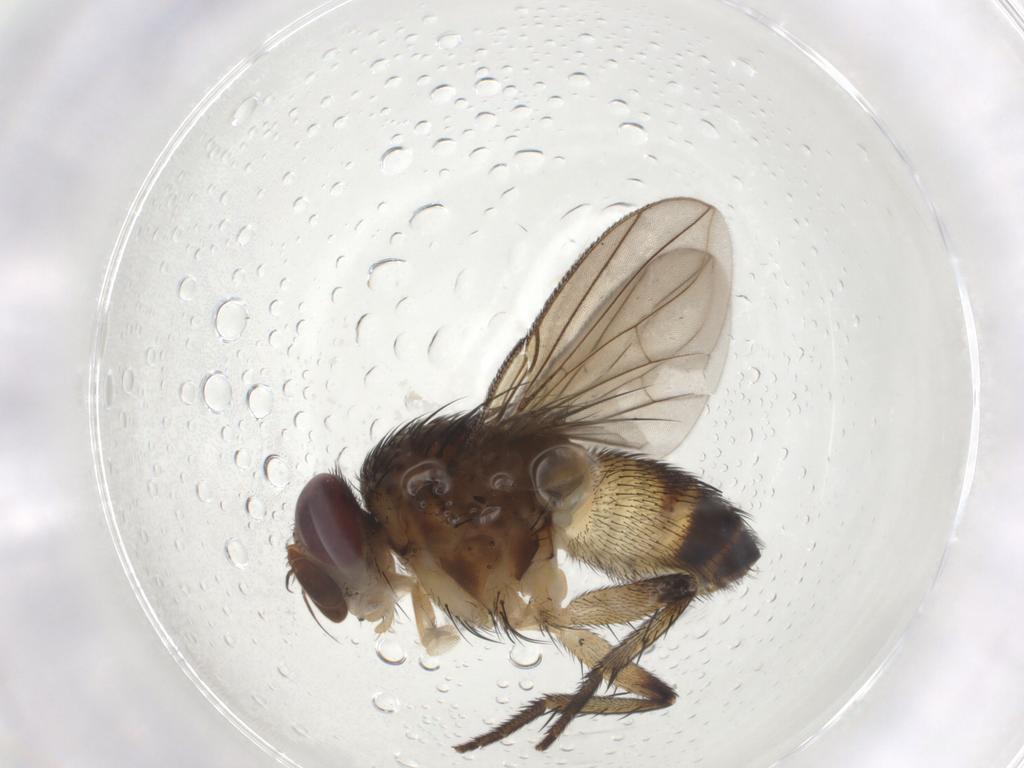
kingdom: Animalia
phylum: Arthropoda
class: Insecta
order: Diptera
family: Tachinidae
